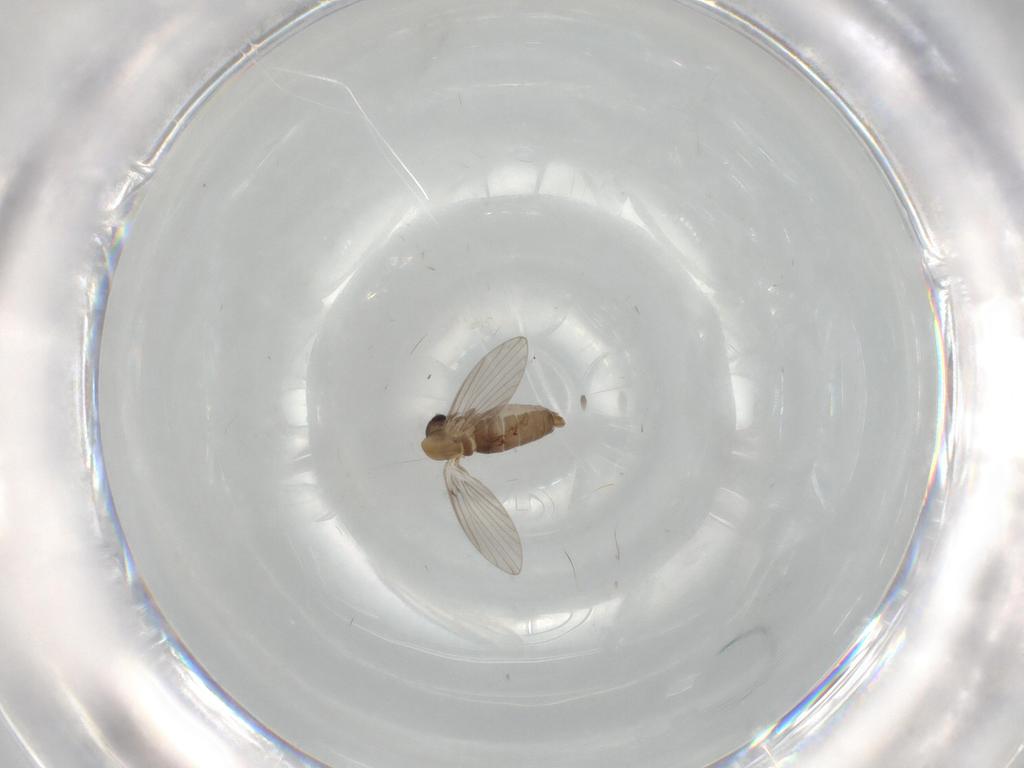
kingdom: Animalia
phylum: Arthropoda
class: Insecta
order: Diptera
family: Psychodidae
